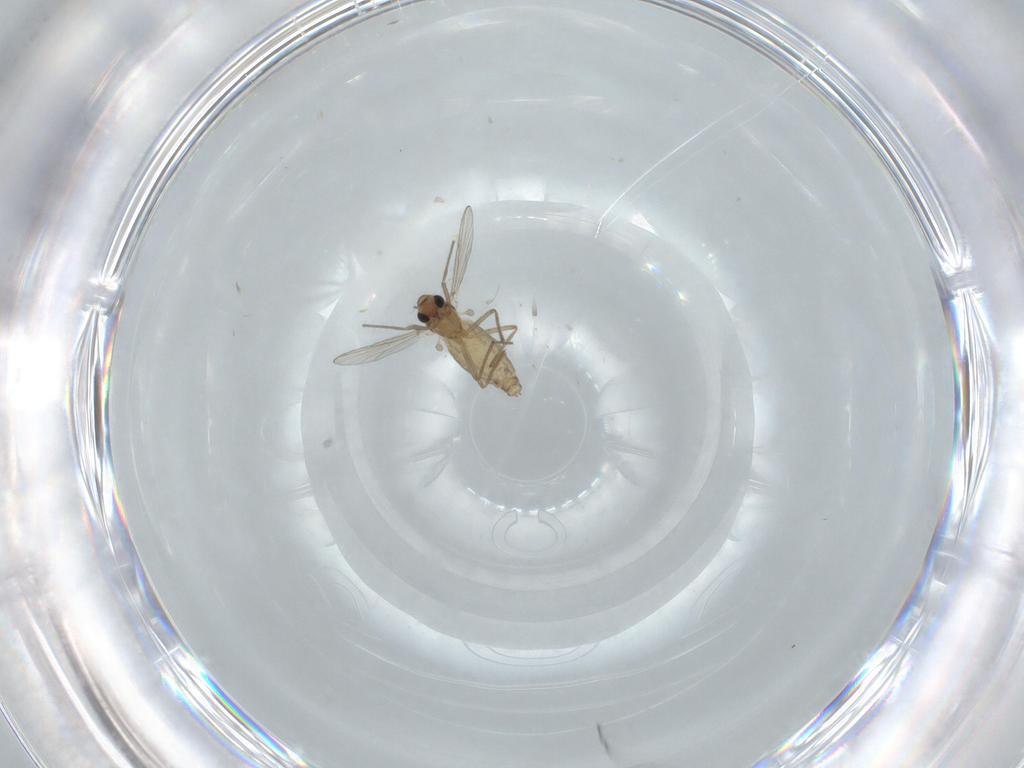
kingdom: Animalia
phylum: Arthropoda
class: Insecta
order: Diptera
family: Chironomidae
